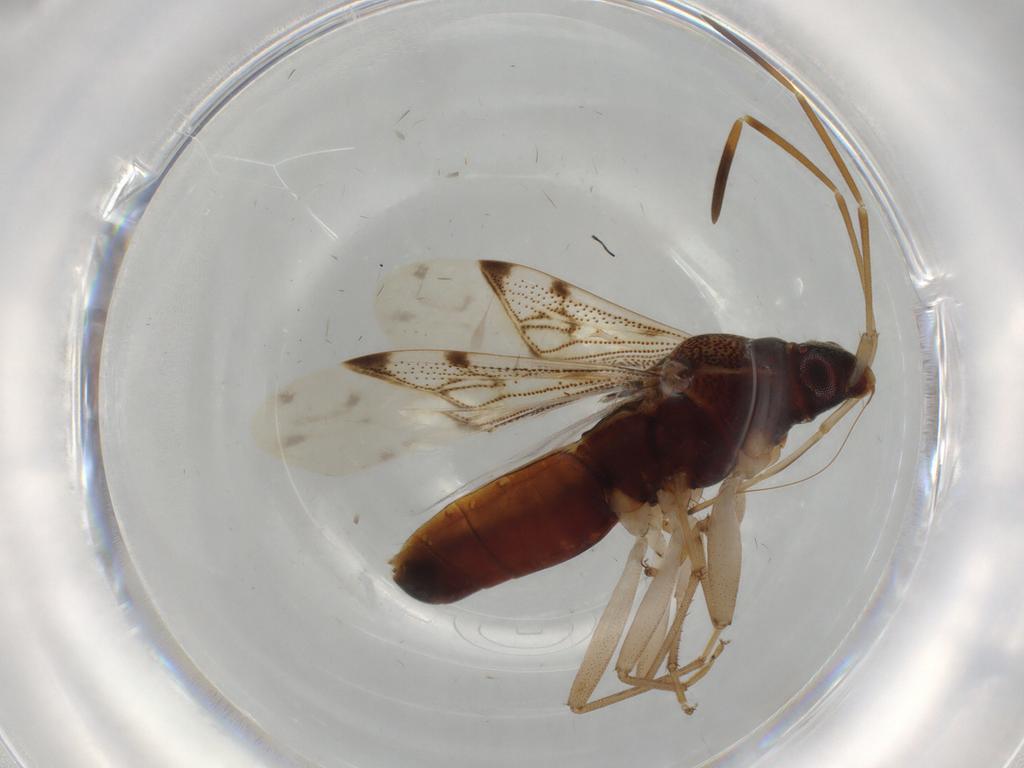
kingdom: Animalia
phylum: Arthropoda
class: Insecta
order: Hemiptera
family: Rhyparochromidae
